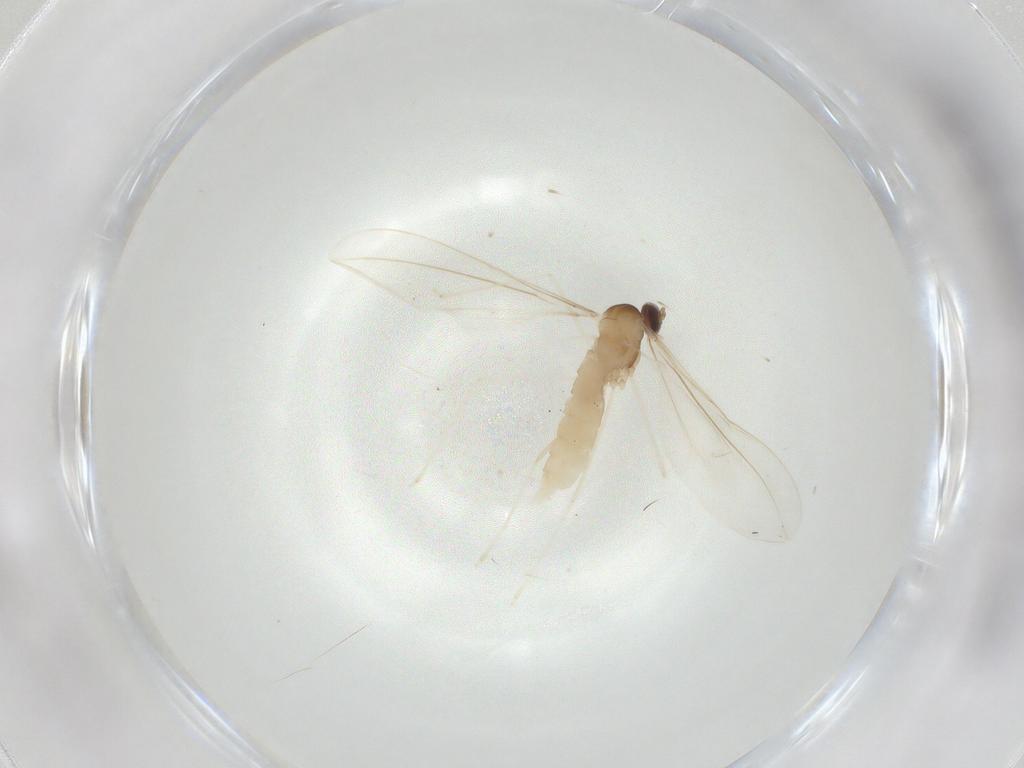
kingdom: Animalia
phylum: Arthropoda
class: Insecta
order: Diptera
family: Cecidomyiidae
